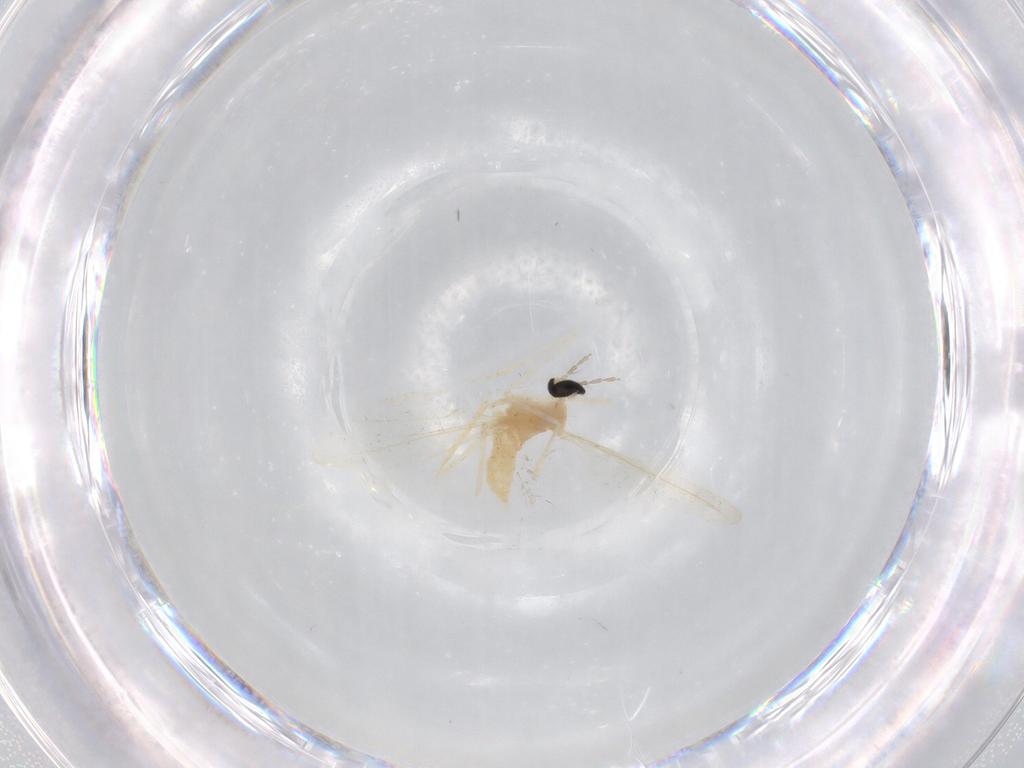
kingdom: Animalia
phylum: Arthropoda
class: Insecta
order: Diptera
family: Cecidomyiidae
